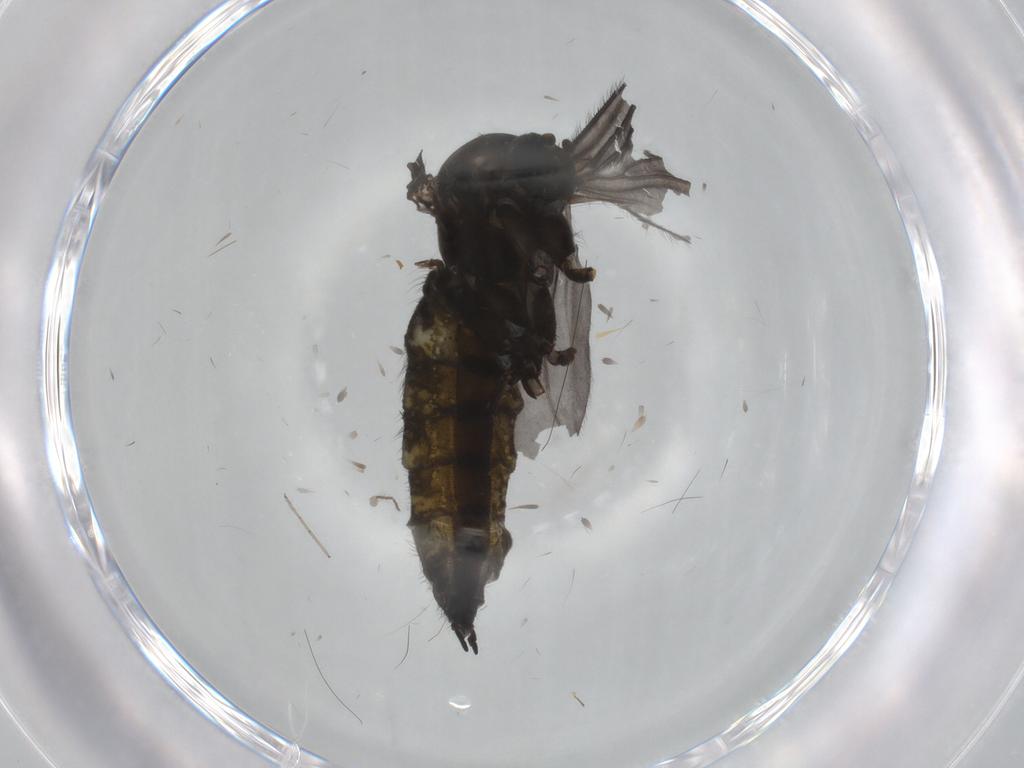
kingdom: Animalia
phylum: Arthropoda
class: Insecta
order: Diptera
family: Sciaridae
